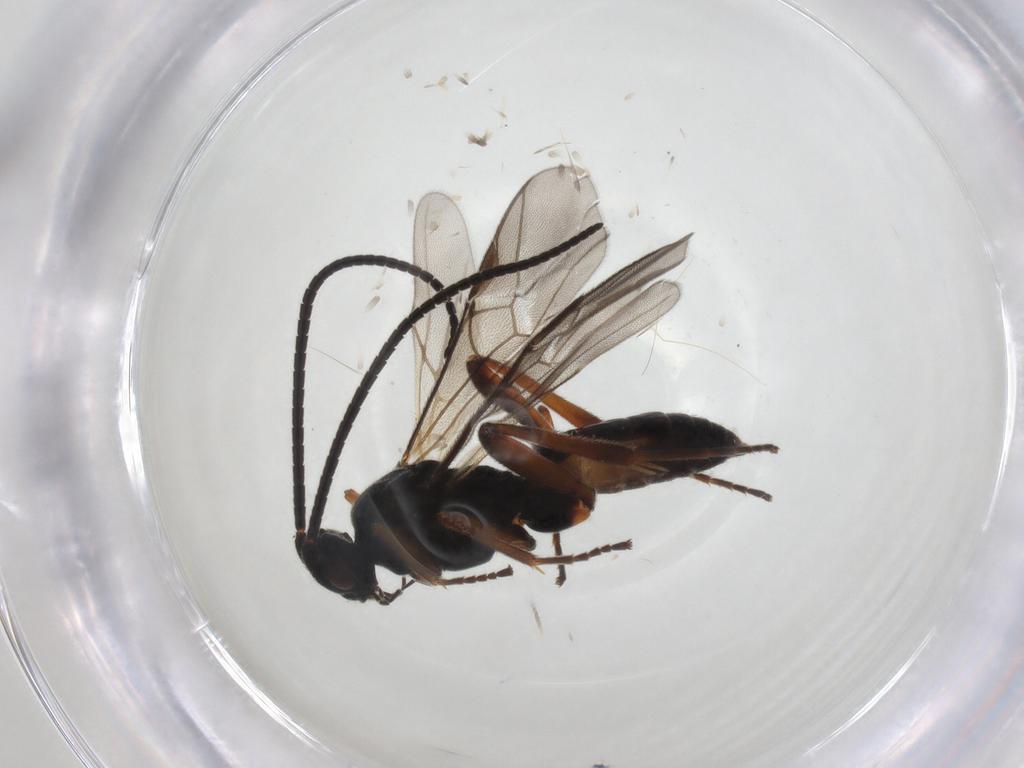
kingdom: Animalia
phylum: Arthropoda
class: Insecta
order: Hymenoptera
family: Braconidae
